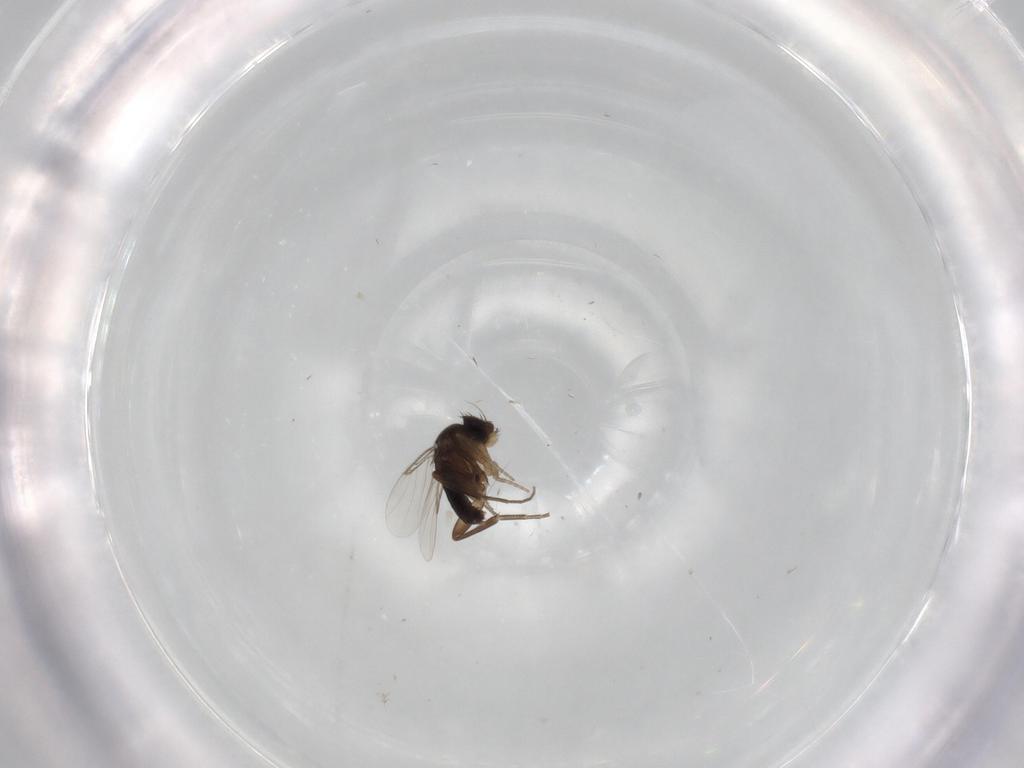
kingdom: Animalia
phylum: Arthropoda
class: Insecta
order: Diptera
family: Phoridae
